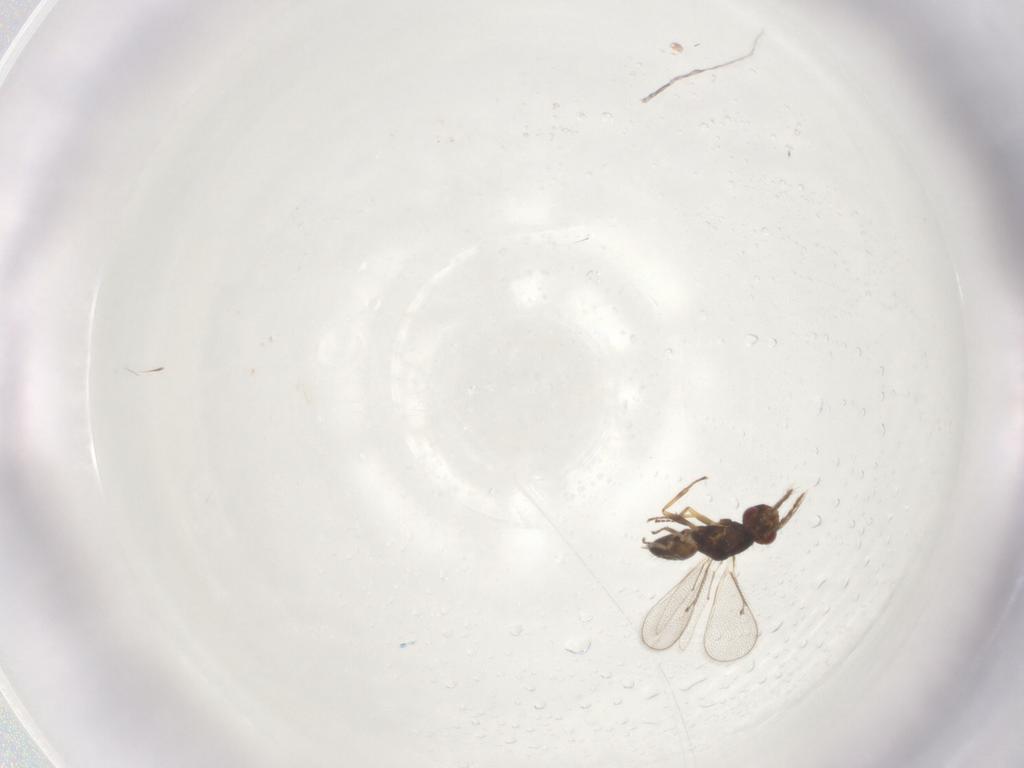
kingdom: Animalia
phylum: Arthropoda
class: Insecta
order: Hymenoptera
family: Eulophidae
